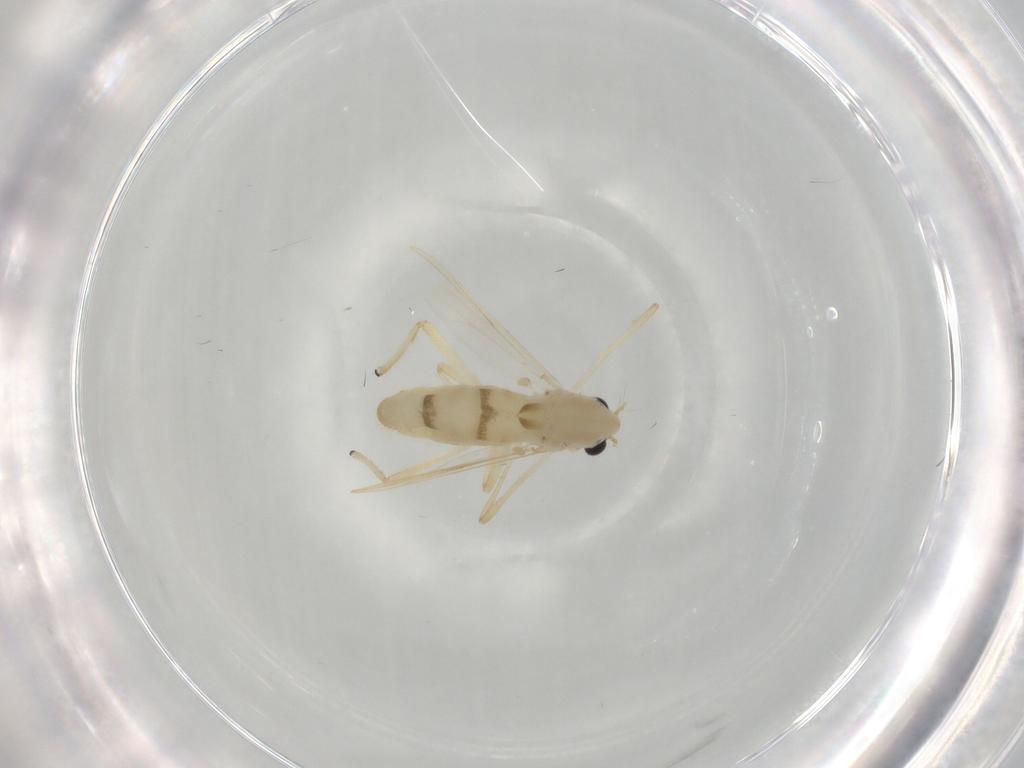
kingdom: Animalia
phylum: Arthropoda
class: Insecta
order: Diptera
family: Chironomidae
